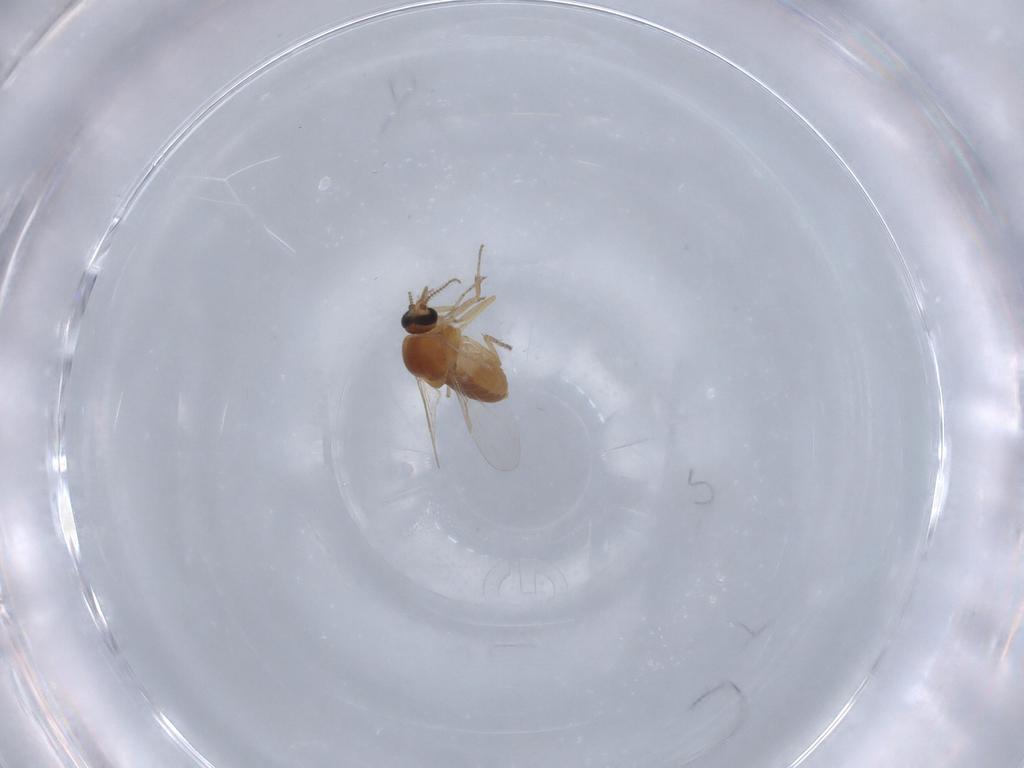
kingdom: Animalia
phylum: Arthropoda
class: Insecta
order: Diptera
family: Ceratopogonidae
